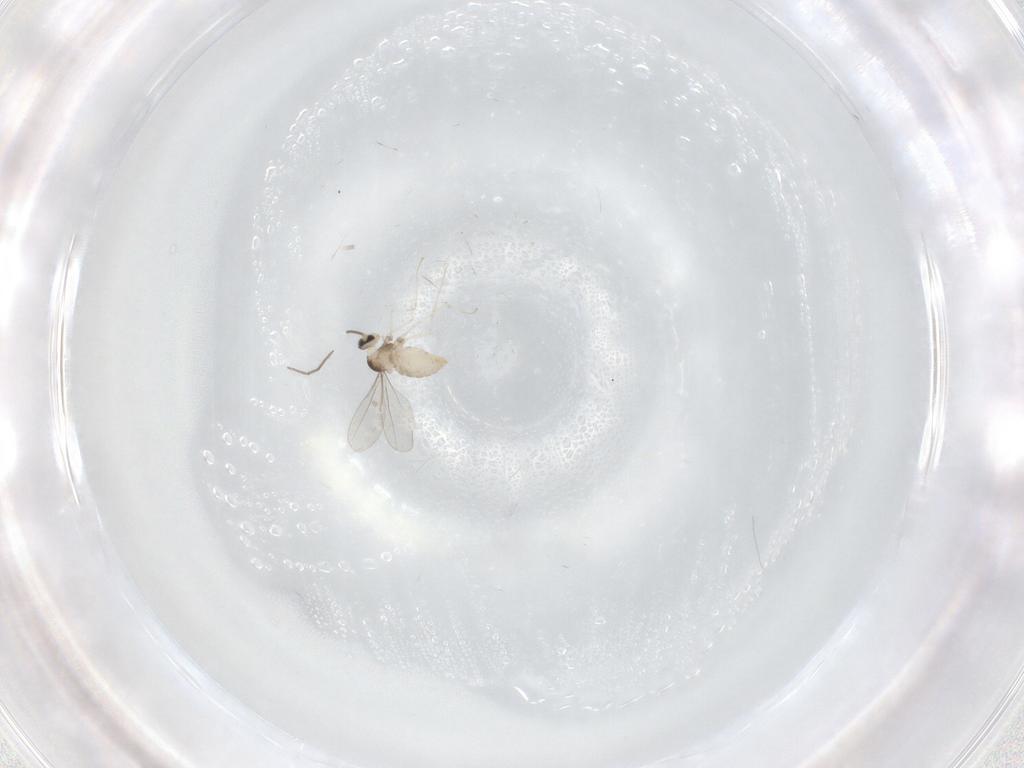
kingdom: Animalia
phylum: Arthropoda
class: Insecta
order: Diptera
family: Cecidomyiidae
